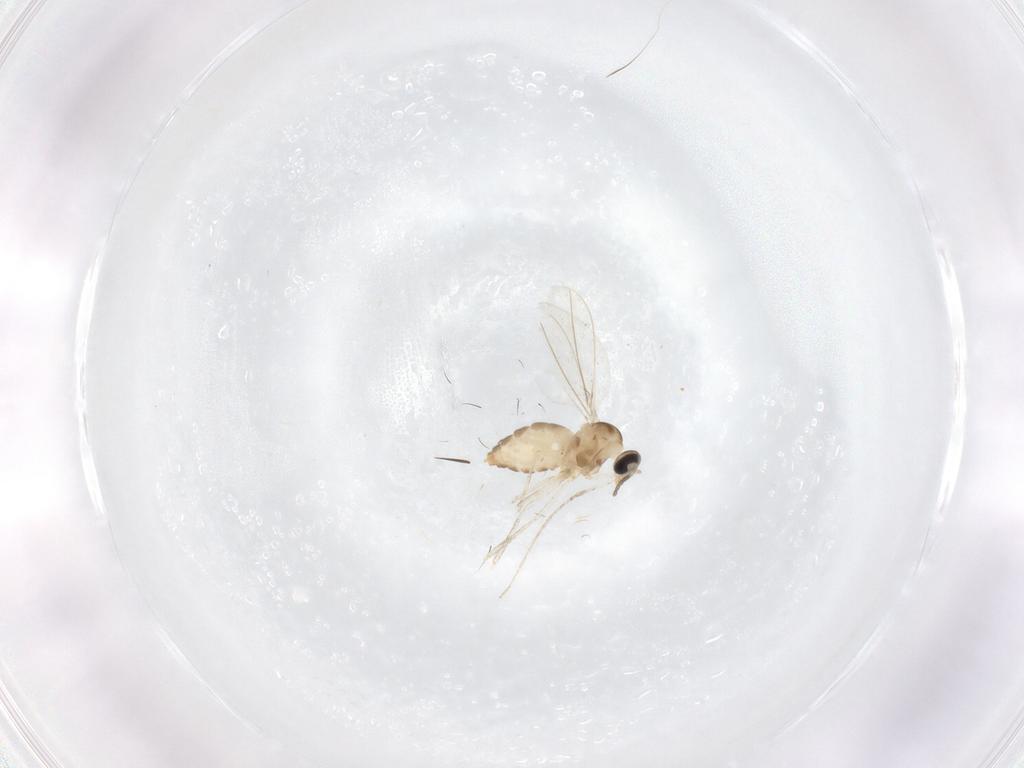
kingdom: Animalia
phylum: Arthropoda
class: Insecta
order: Diptera
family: Cecidomyiidae
